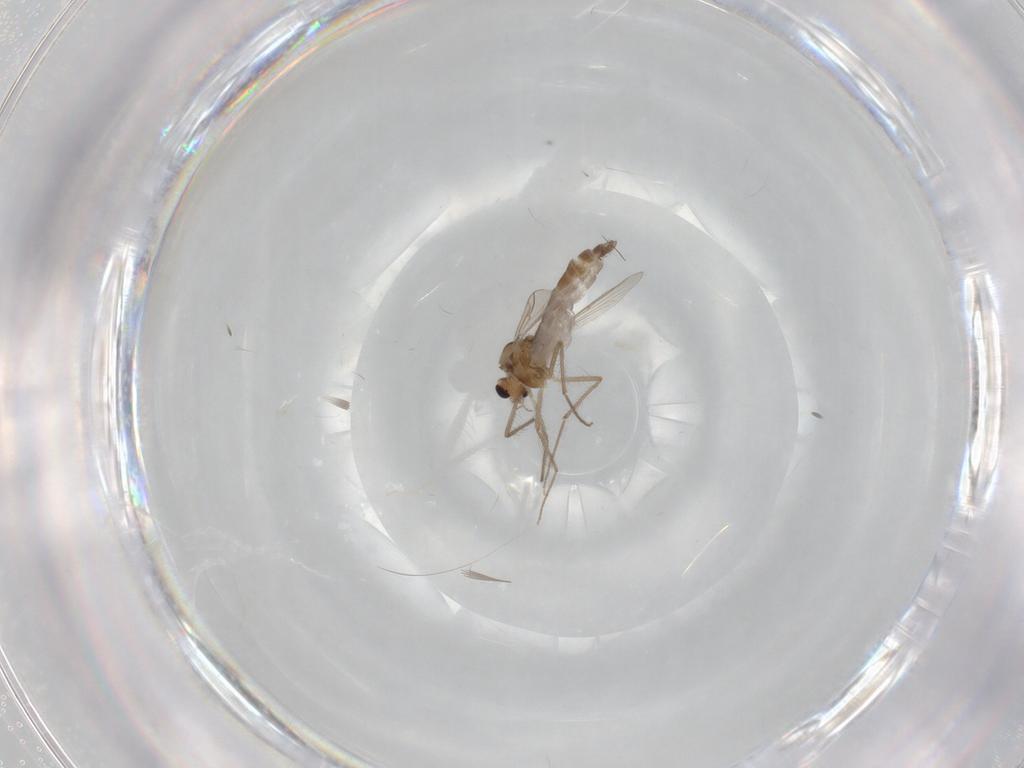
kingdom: Animalia
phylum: Arthropoda
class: Insecta
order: Diptera
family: Chironomidae
